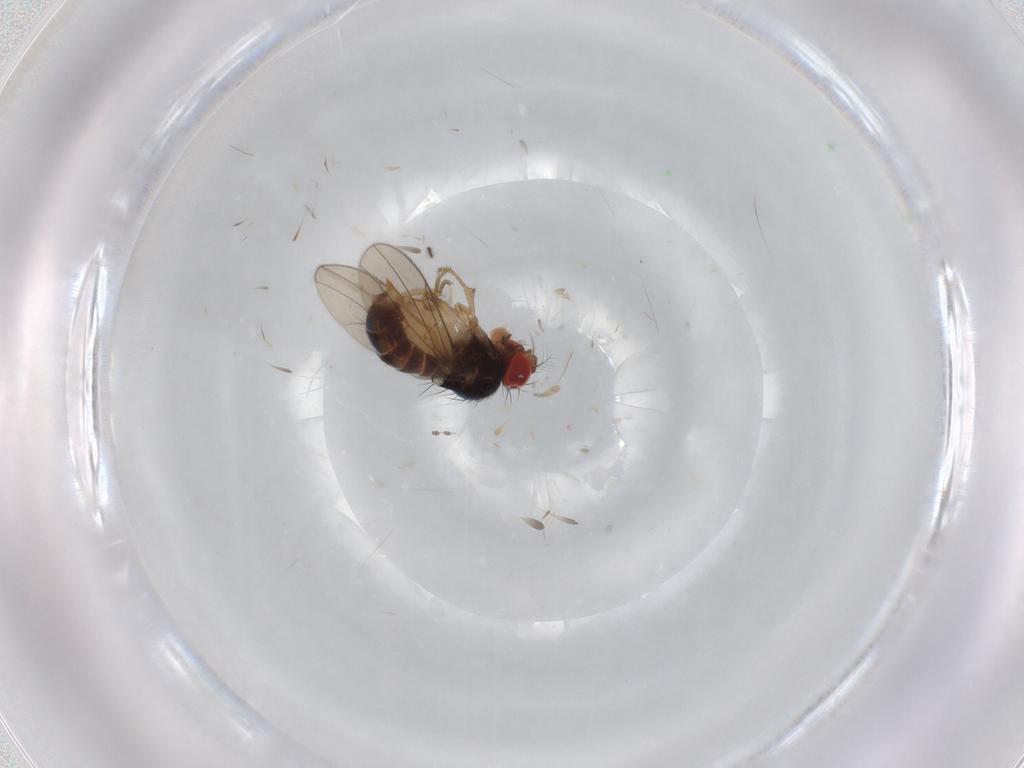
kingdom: Animalia
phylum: Arthropoda
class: Insecta
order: Diptera
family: Drosophilidae
